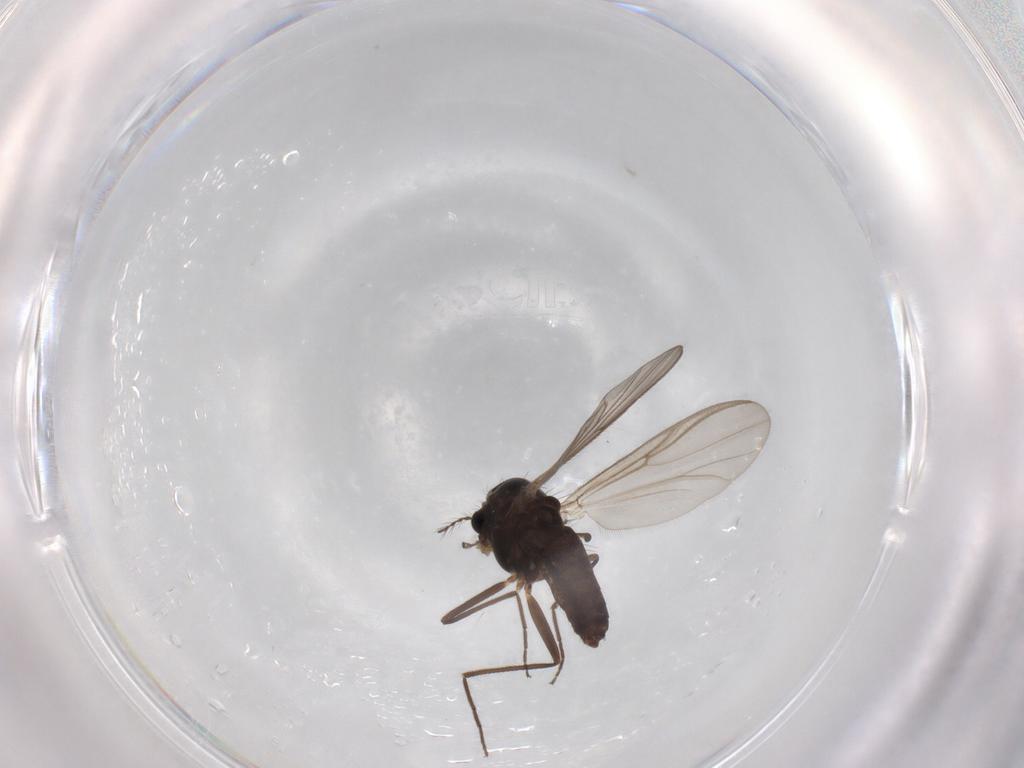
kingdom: Animalia
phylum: Arthropoda
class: Insecta
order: Diptera
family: Chironomidae
